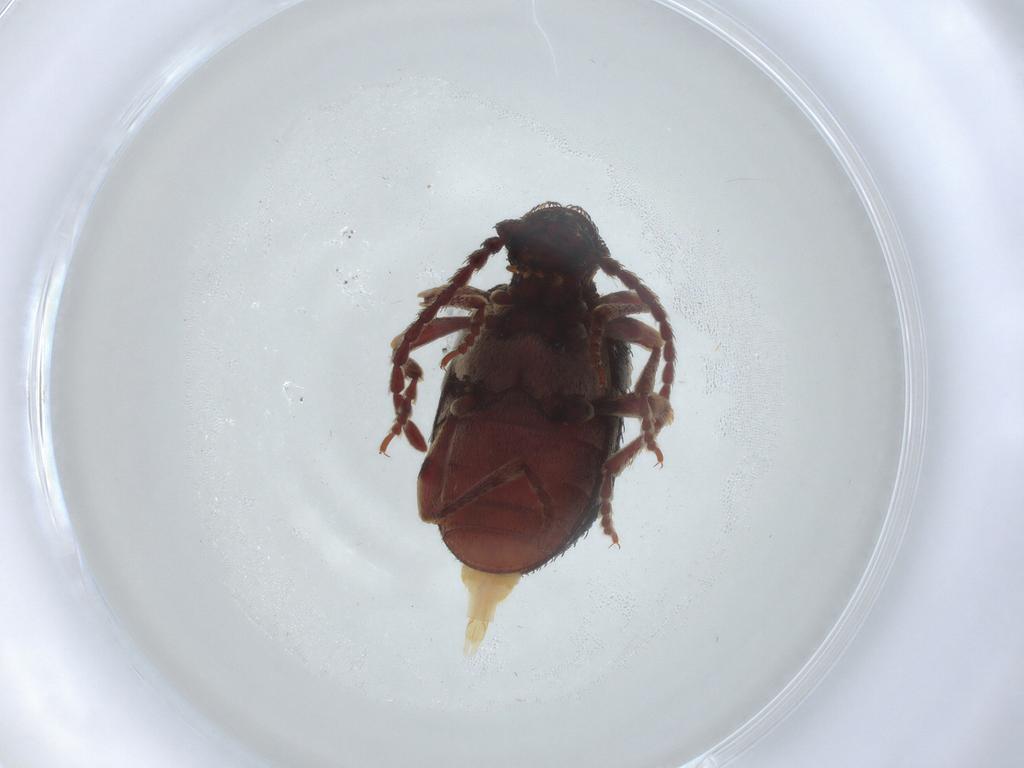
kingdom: Animalia
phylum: Arthropoda
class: Insecta
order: Coleoptera
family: Ptinidae
